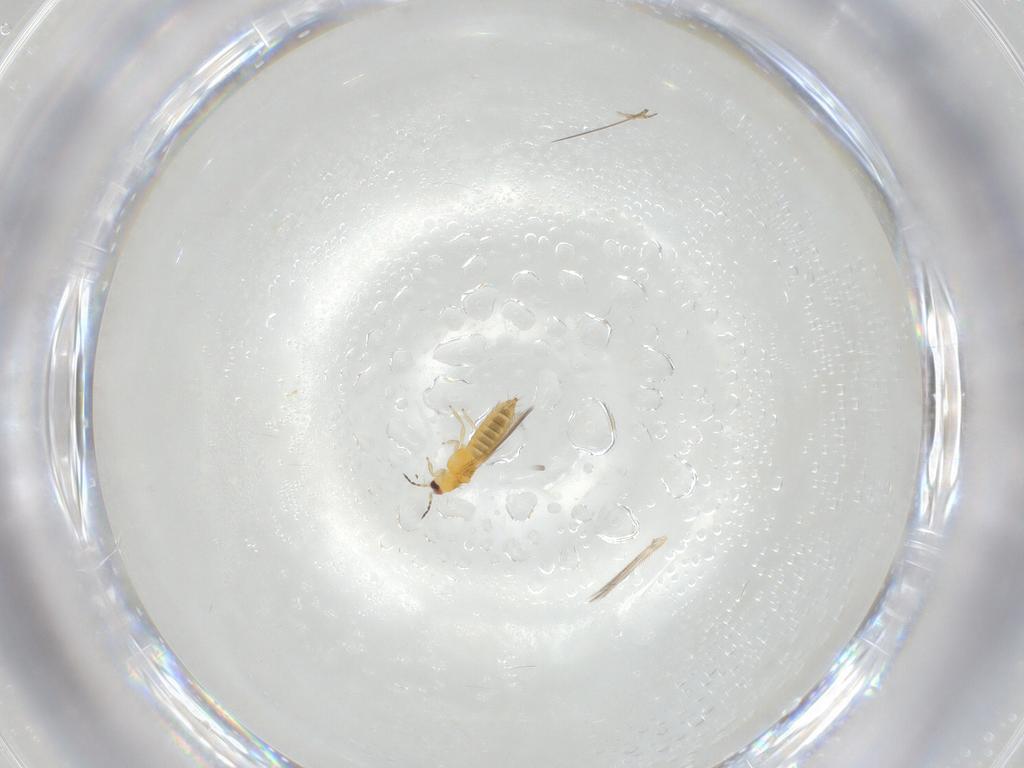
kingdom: Animalia
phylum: Arthropoda
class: Insecta
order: Thysanoptera
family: Thripidae
